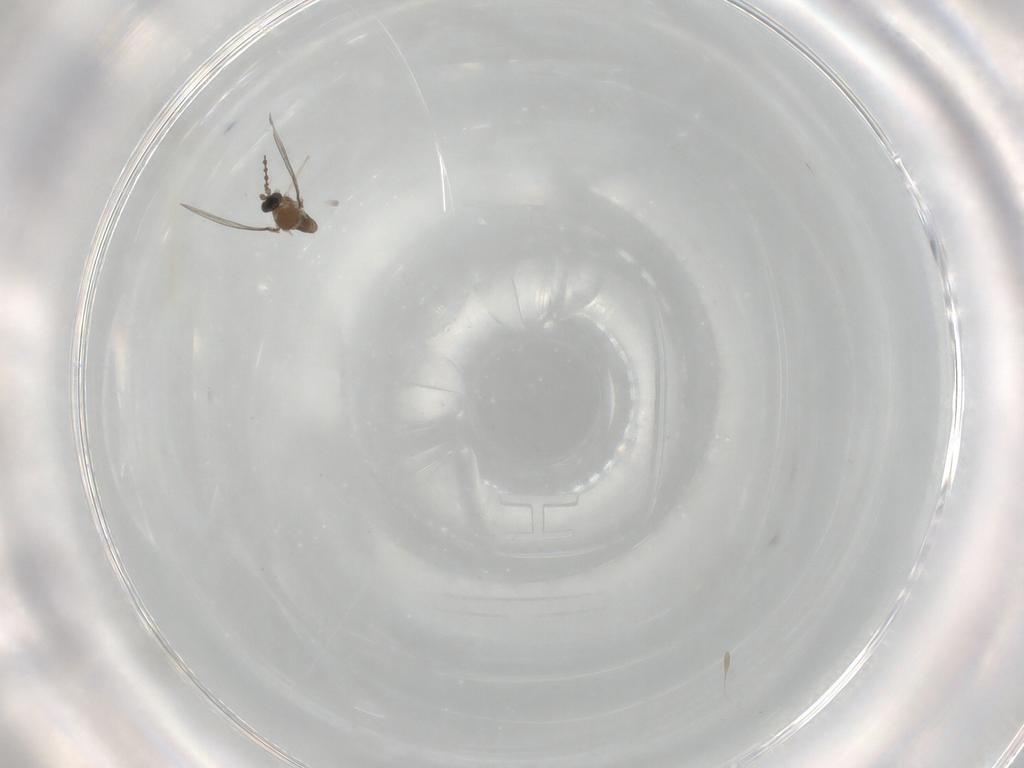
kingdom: Animalia
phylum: Arthropoda
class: Insecta
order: Diptera
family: Cecidomyiidae
